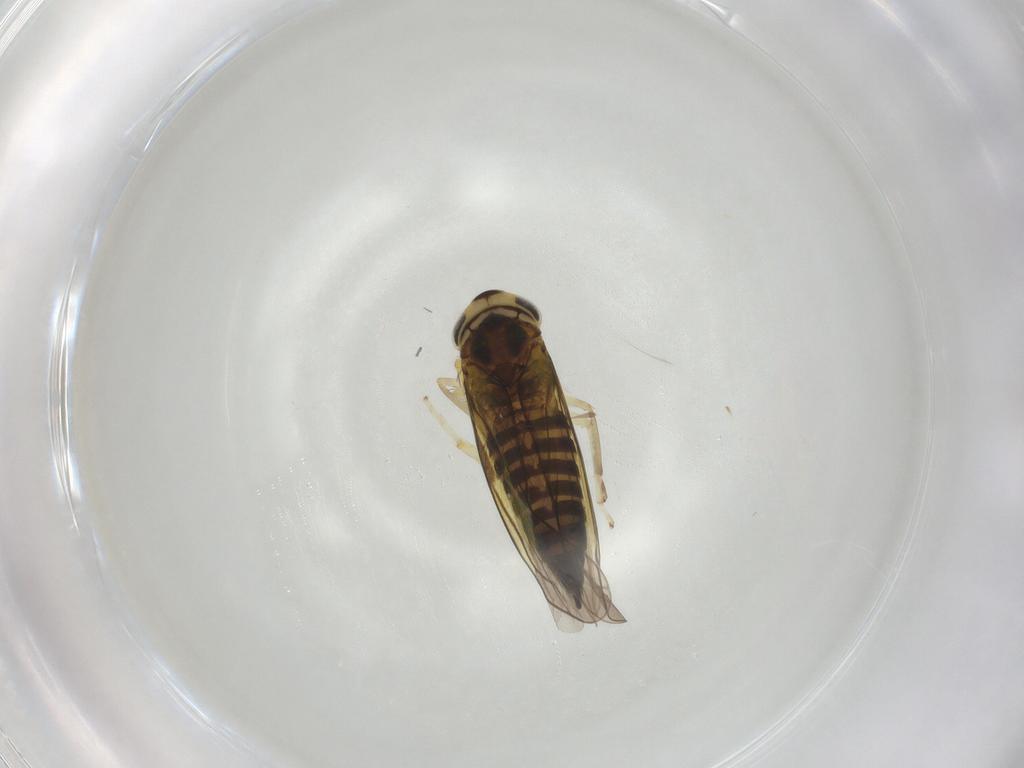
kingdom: Animalia
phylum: Arthropoda
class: Insecta
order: Hemiptera
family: Cicadellidae
